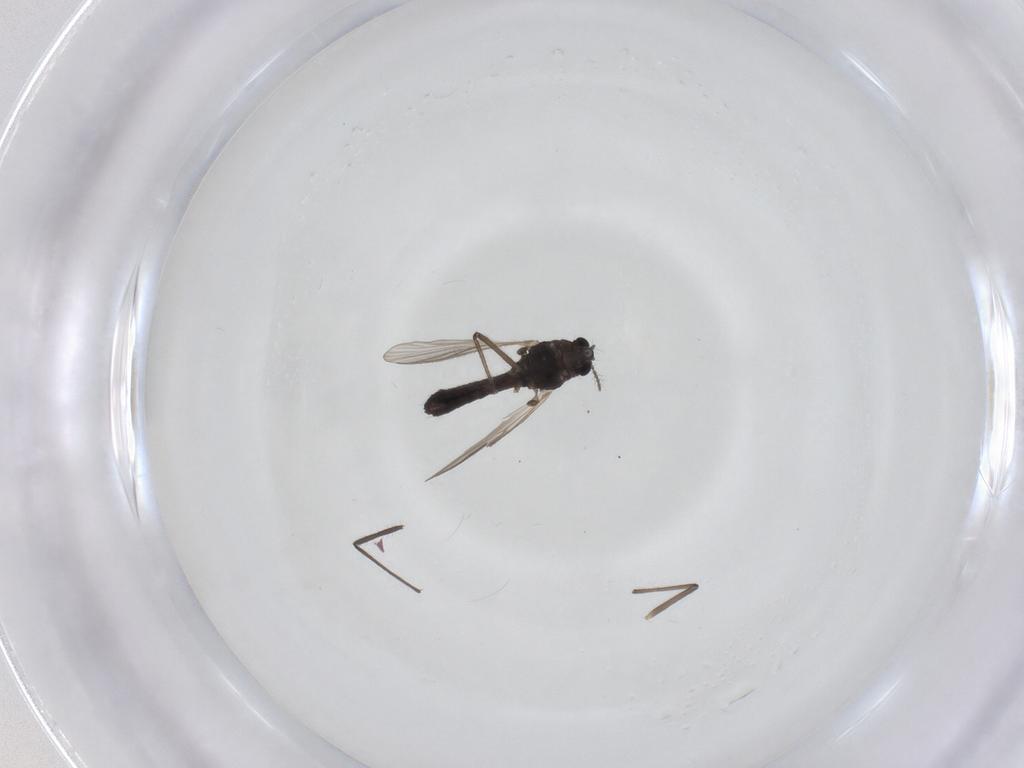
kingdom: Animalia
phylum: Arthropoda
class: Insecta
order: Diptera
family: Chironomidae
